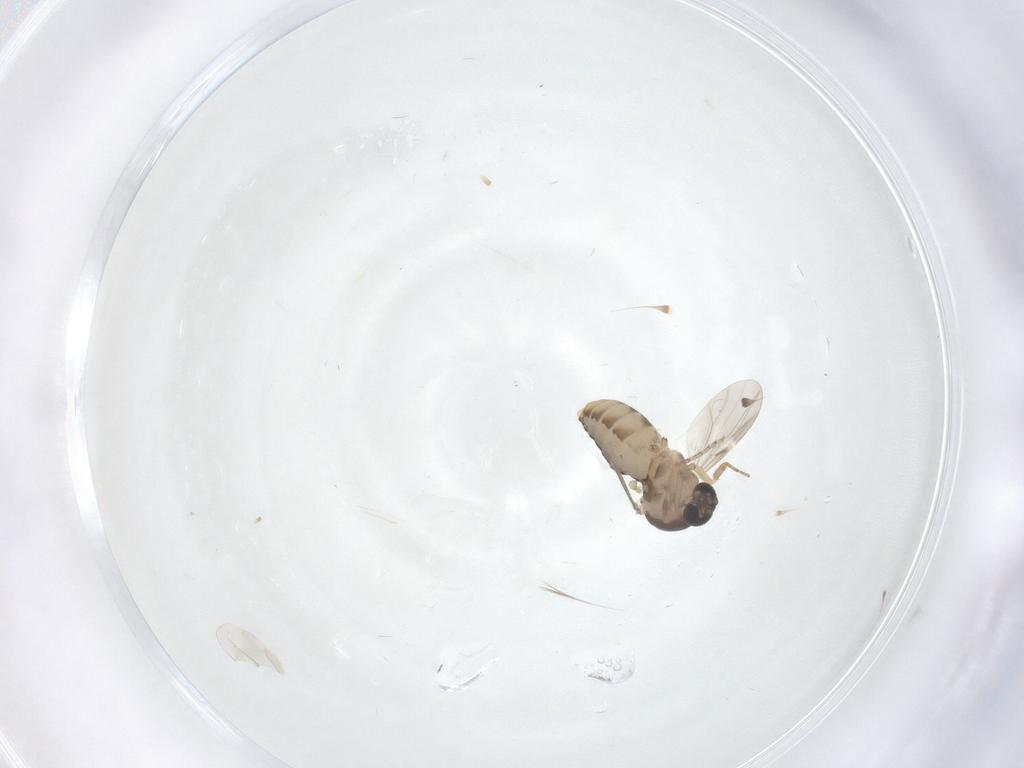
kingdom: Animalia
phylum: Arthropoda
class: Insecta
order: Diptera
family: Ceratopogonidae
